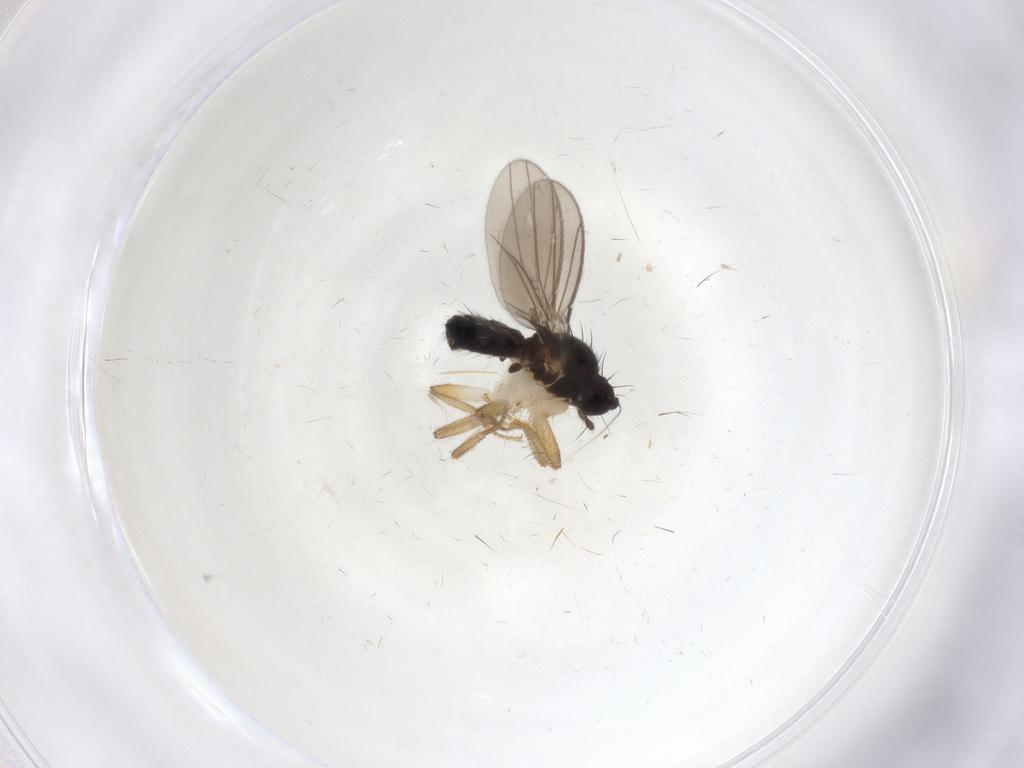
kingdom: Animalia
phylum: Arthropoda
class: Insecta
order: Diptera
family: Inbiomyiidae
